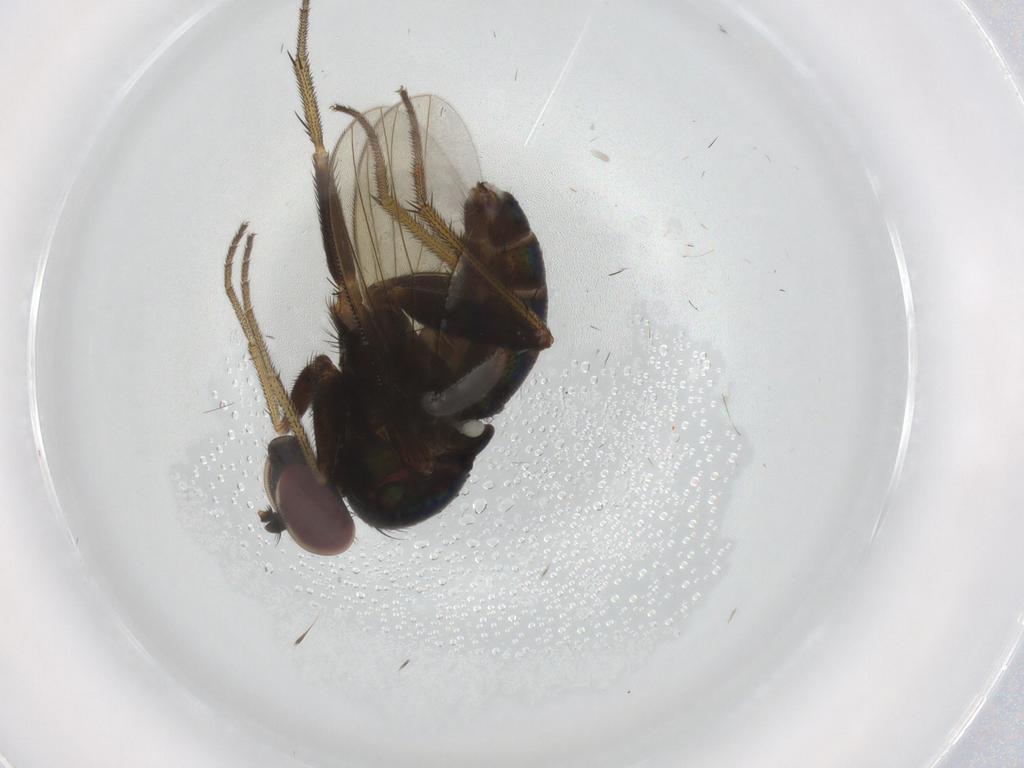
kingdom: Animalia
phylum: Arthropoda
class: Insecta
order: Diptera
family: Dolichopodidae
